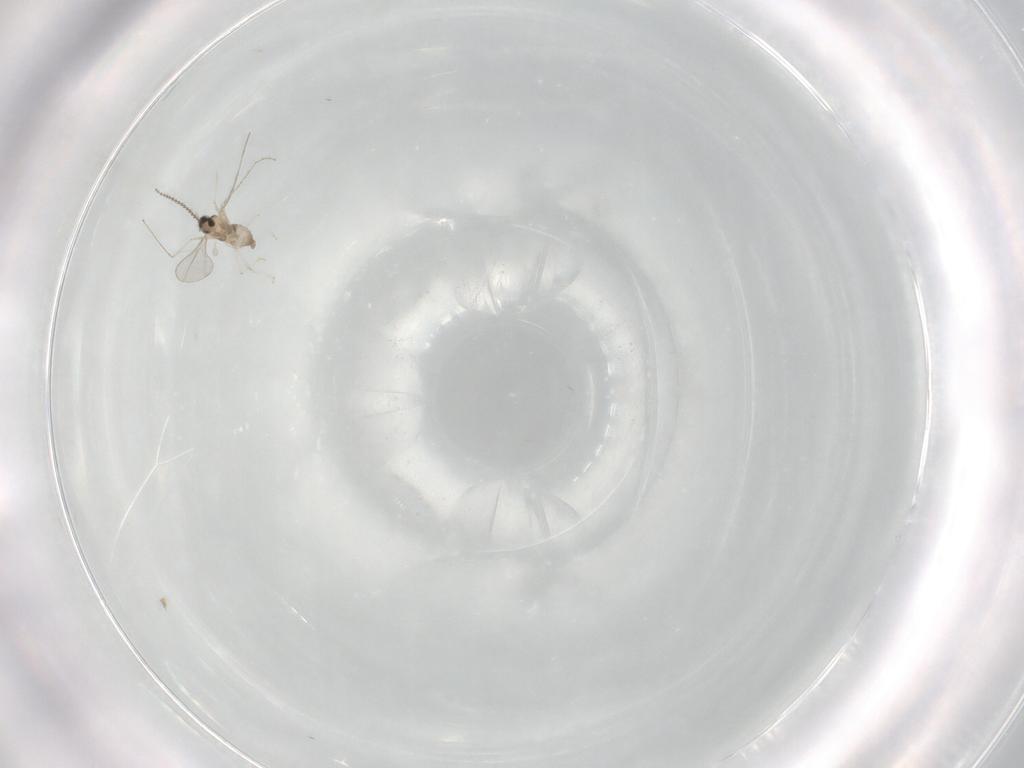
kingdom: Animalia
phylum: Arthropoda
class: Insecta
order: Diptera
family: Cecidomyiidae
